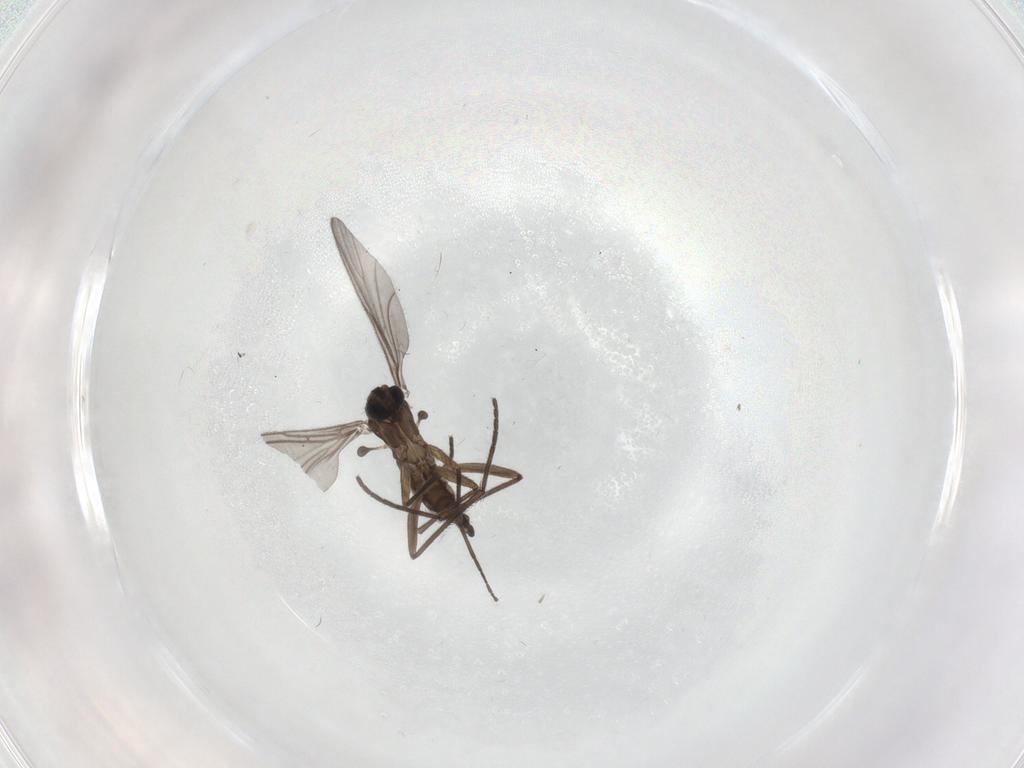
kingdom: Animalia
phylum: Arthropoda
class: Insecta
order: Diptera
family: Sciaridae
